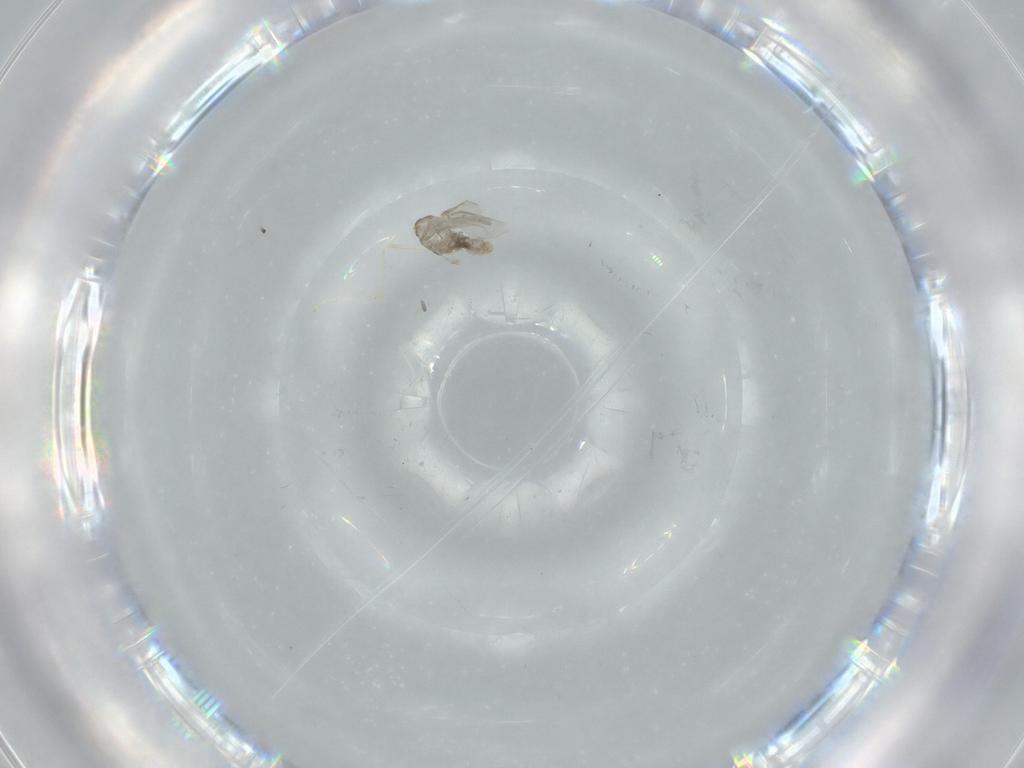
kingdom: Animalia
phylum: Arthropoda
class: Insecta
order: Diptera
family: Cecidomyiidae
